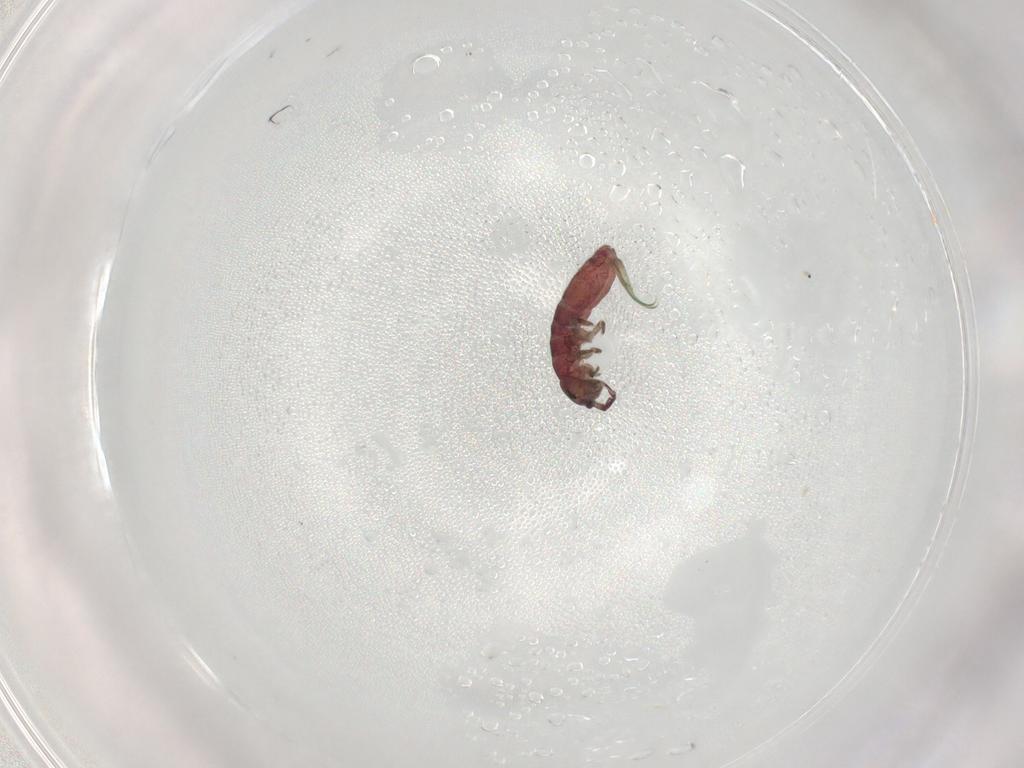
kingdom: Animalia
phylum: Arthropoda
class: Collembola
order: Entomobryomorpha
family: Isotomidae
